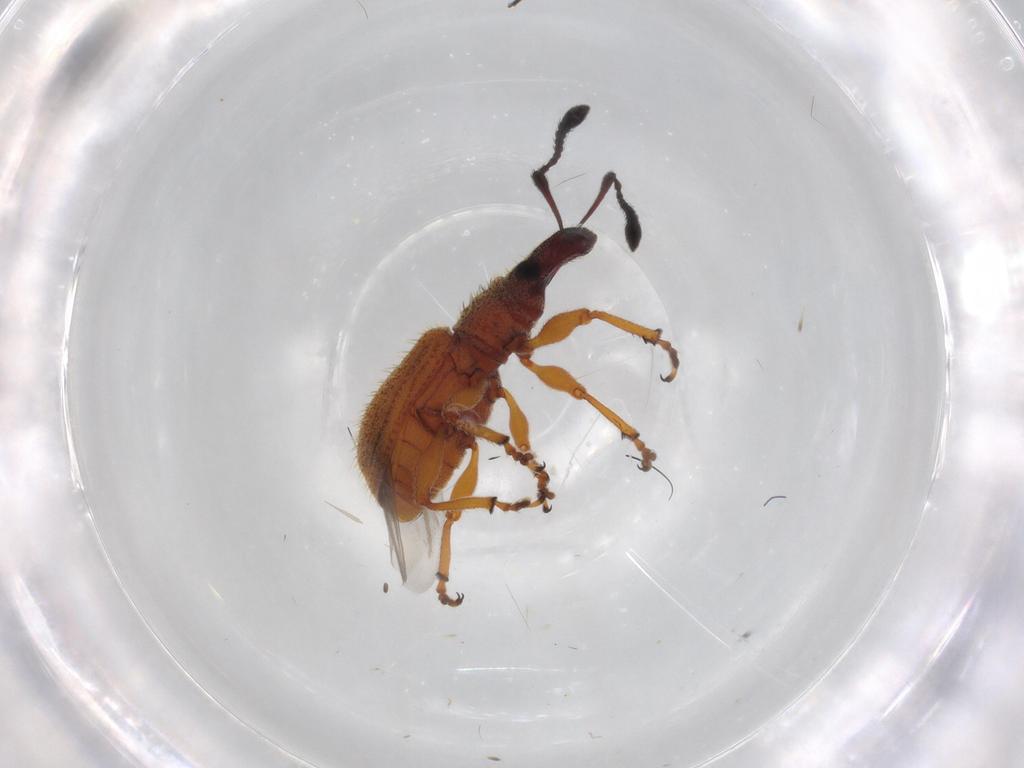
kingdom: Animalia
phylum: Arthropoda
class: Insecta
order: Coleoptera
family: Curculionidae
